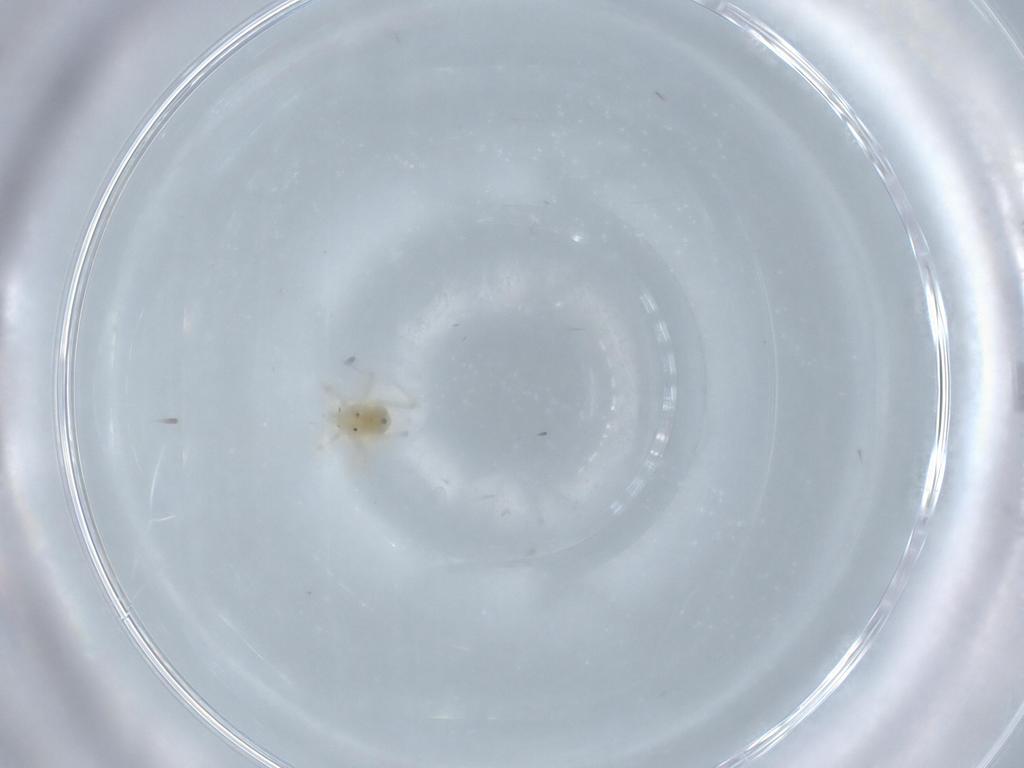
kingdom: Animalia
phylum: Arthropoda
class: Arachnida
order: Trombidiformes
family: Anystidae
